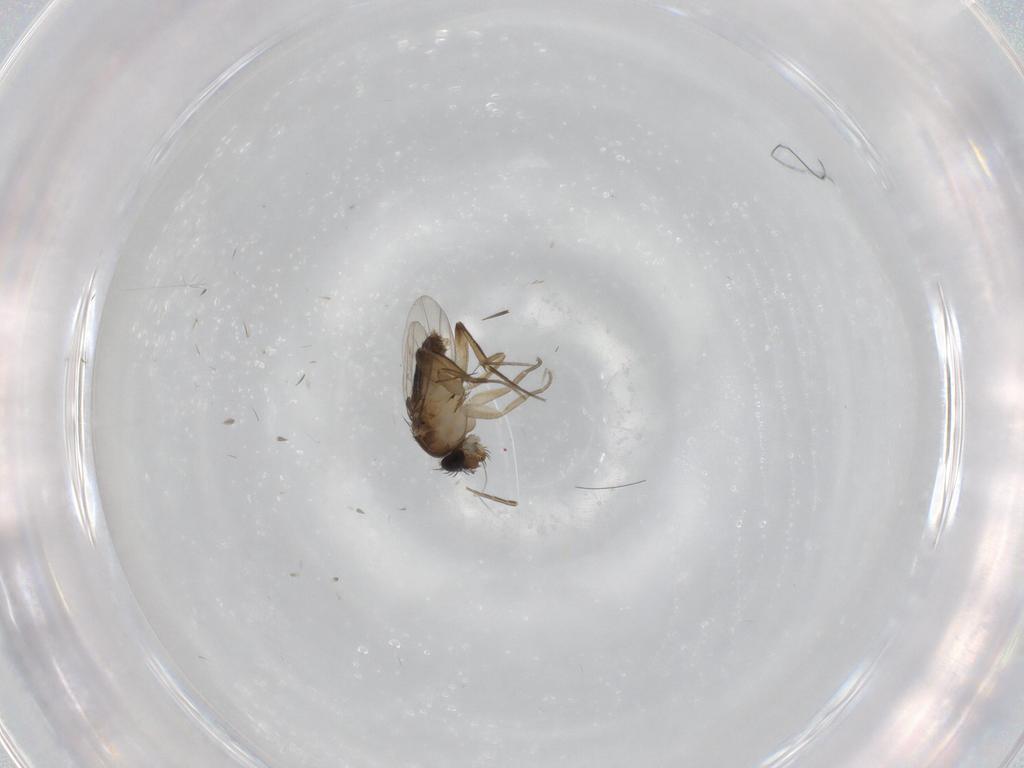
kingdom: Animalia
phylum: Arthropoda
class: Insecta
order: Diptera
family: Phoridae
